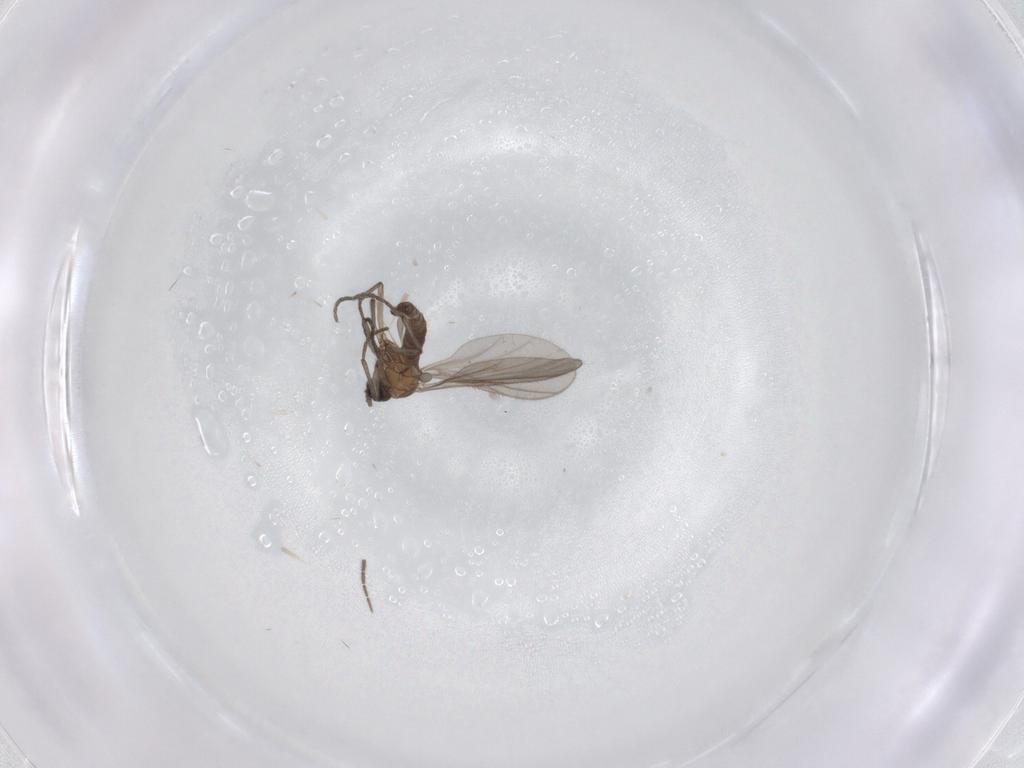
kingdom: Animalia
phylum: Arthropoda
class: Insecta
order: Diptera
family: Sciaridae
